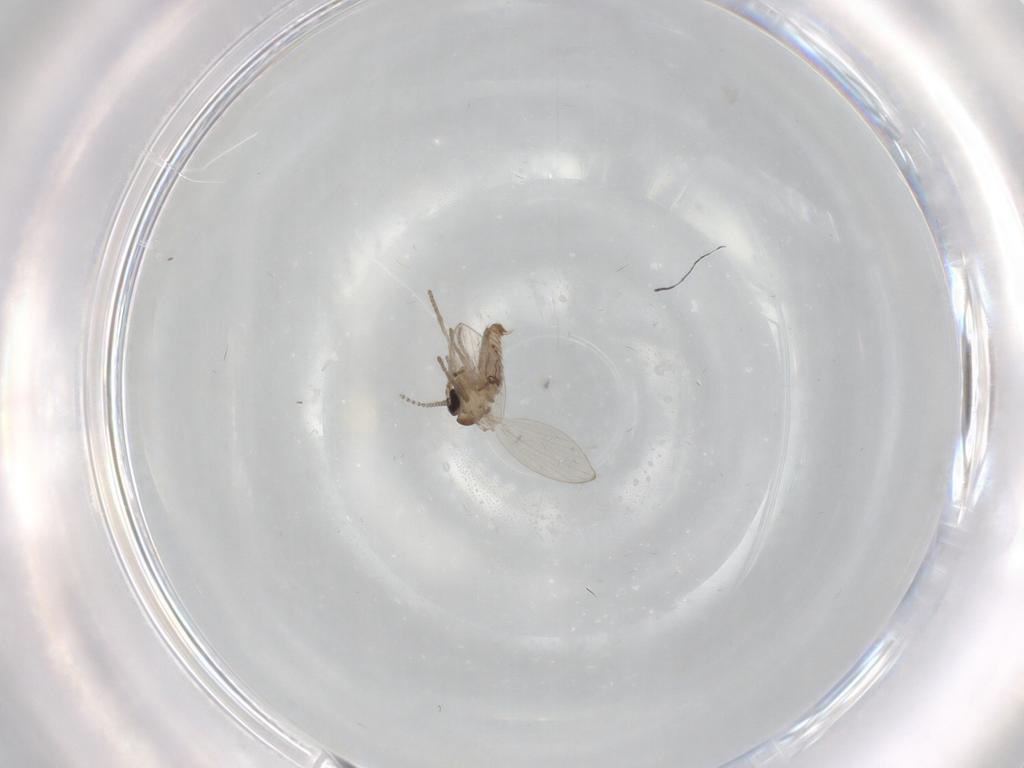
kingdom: Animalia
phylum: Arthropoda
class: Insecta
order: Diptera
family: Psychodidae
